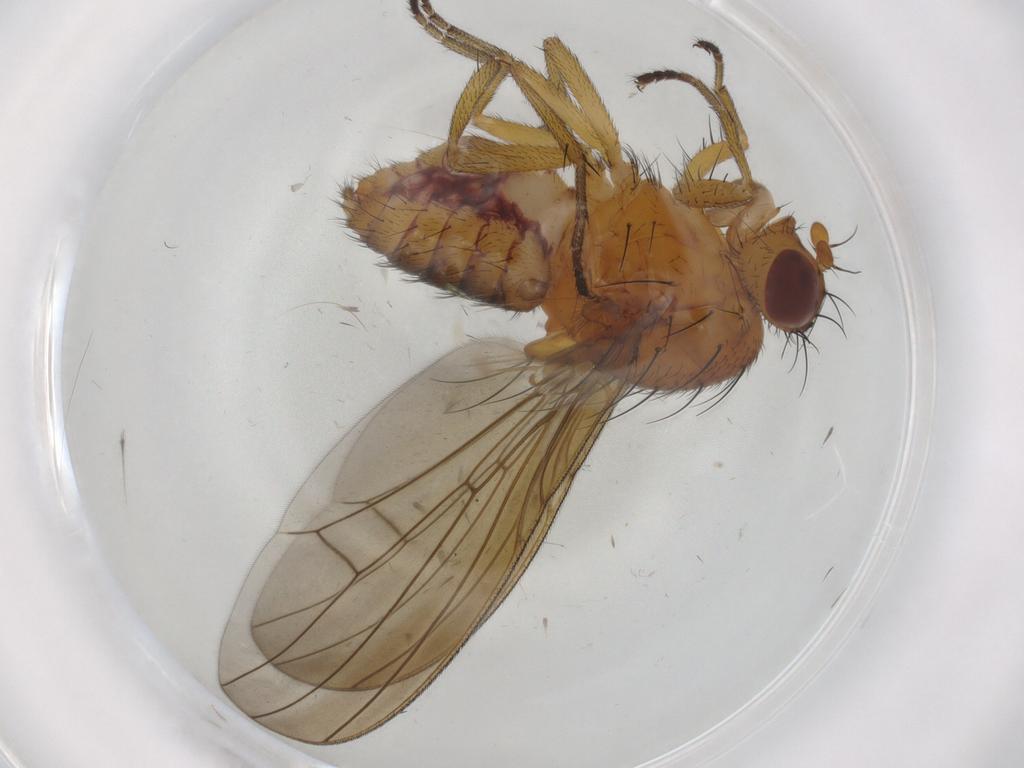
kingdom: Animalia
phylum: Arthropoda
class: Insecta
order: Diptera
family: Lauxaniidae
